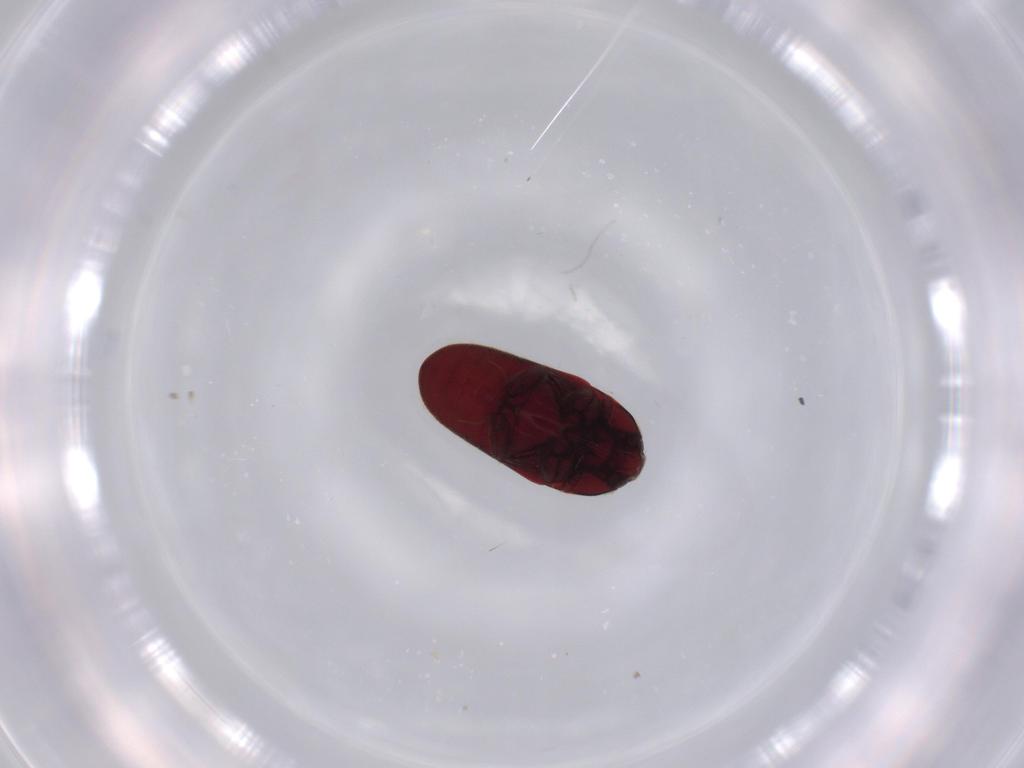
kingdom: Animalia
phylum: Arthropoda
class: Insecta
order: Coleoptera
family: Throscidae
